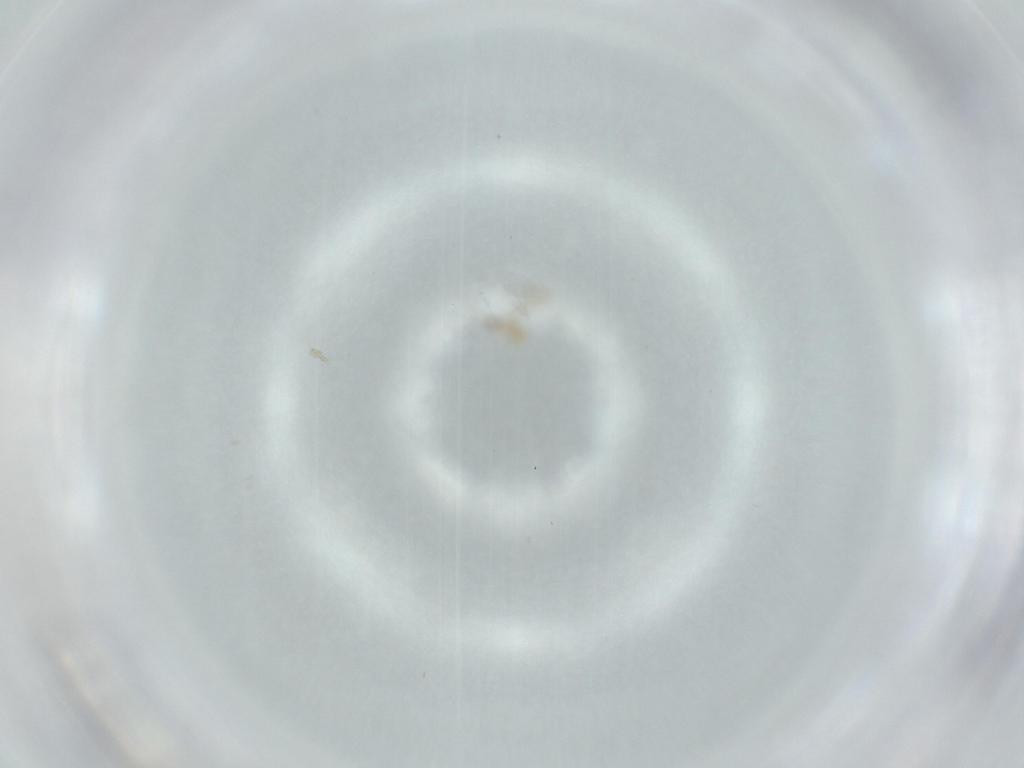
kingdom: Animalia
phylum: Arthropoda
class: Insecta
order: Hymenoptera
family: Mymaridae
